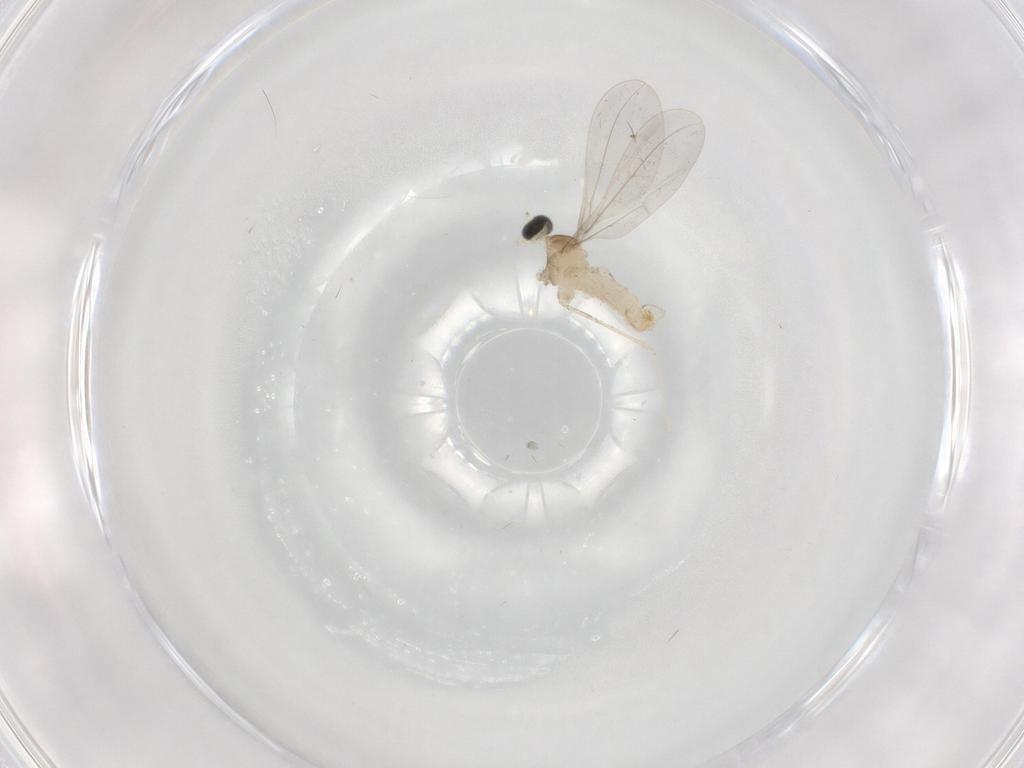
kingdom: Animalia
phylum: Arthropoda
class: Insecta
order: Diptera
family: Cecidomyiidae
